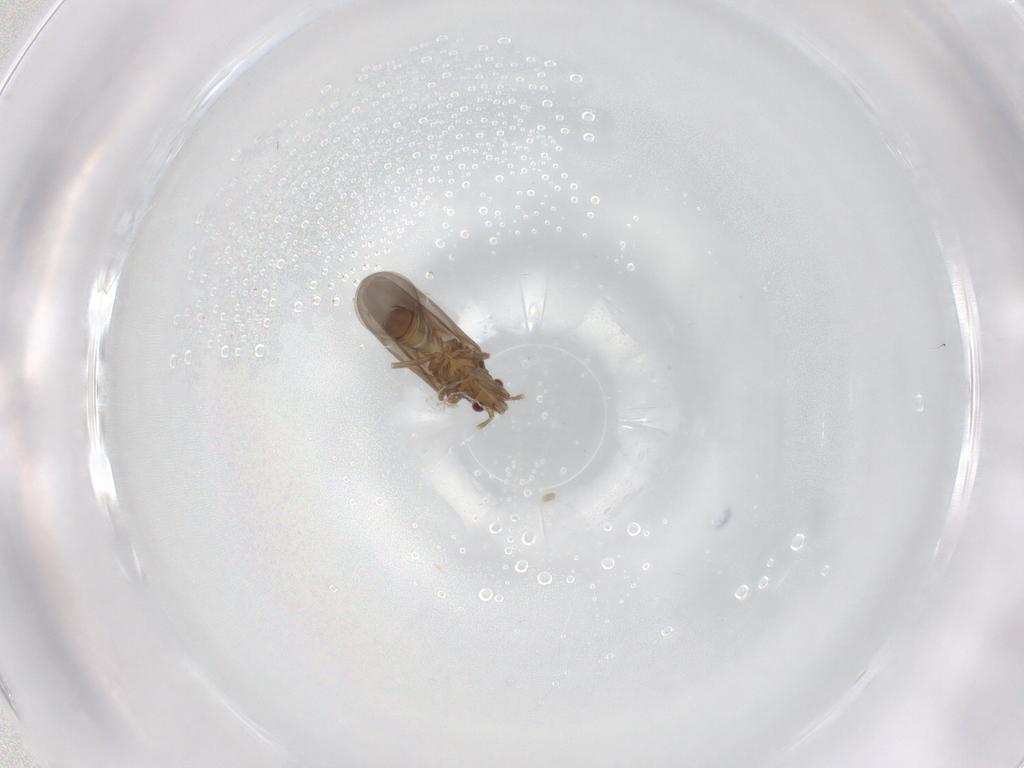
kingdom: Animalia
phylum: Arthropoda
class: Insecta
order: Hemiptera
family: Ceratocombidae
